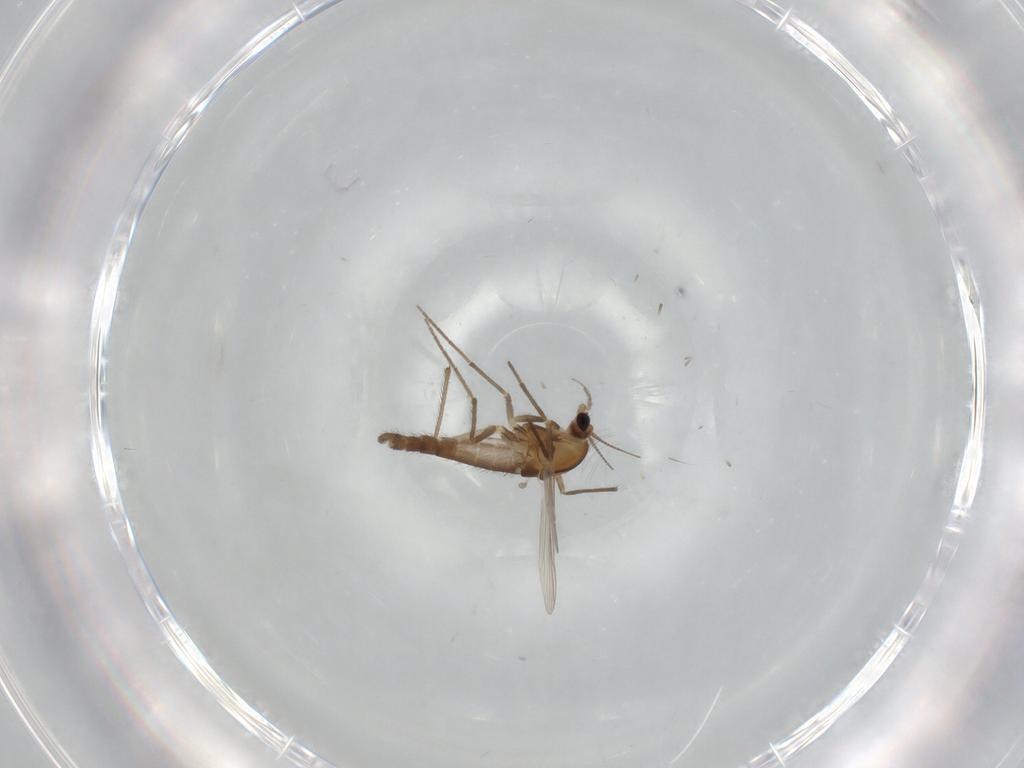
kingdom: Animalia
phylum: Arthropoda
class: Insecta
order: Diptera
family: Chironomidae
